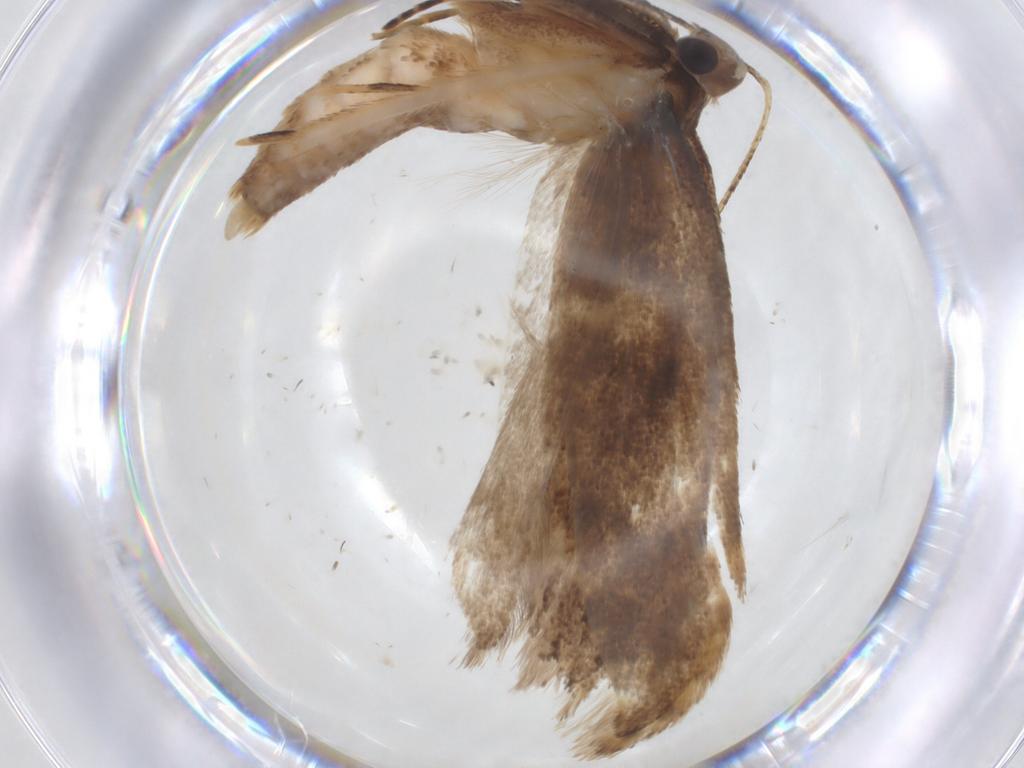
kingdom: Animalia
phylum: Arthropoda
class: Insecta
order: Lepidoptera
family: Gelechiidae
